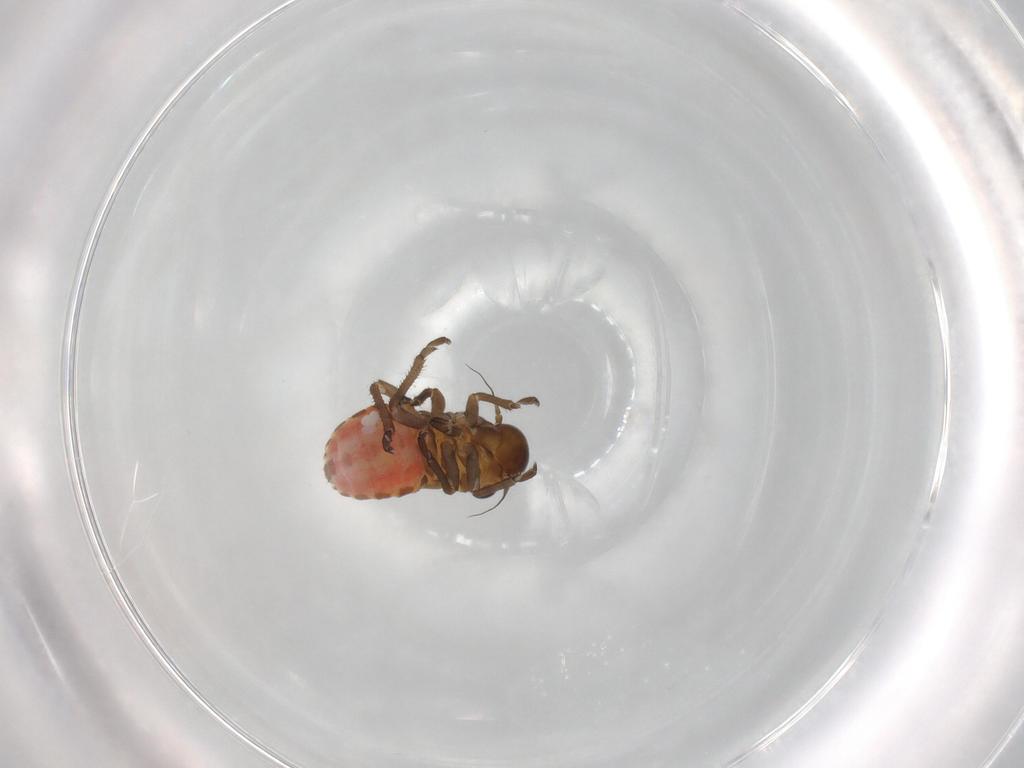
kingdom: Animalia
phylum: Arthropoda
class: Insecta
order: Hemiptera
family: Cicadellidae
